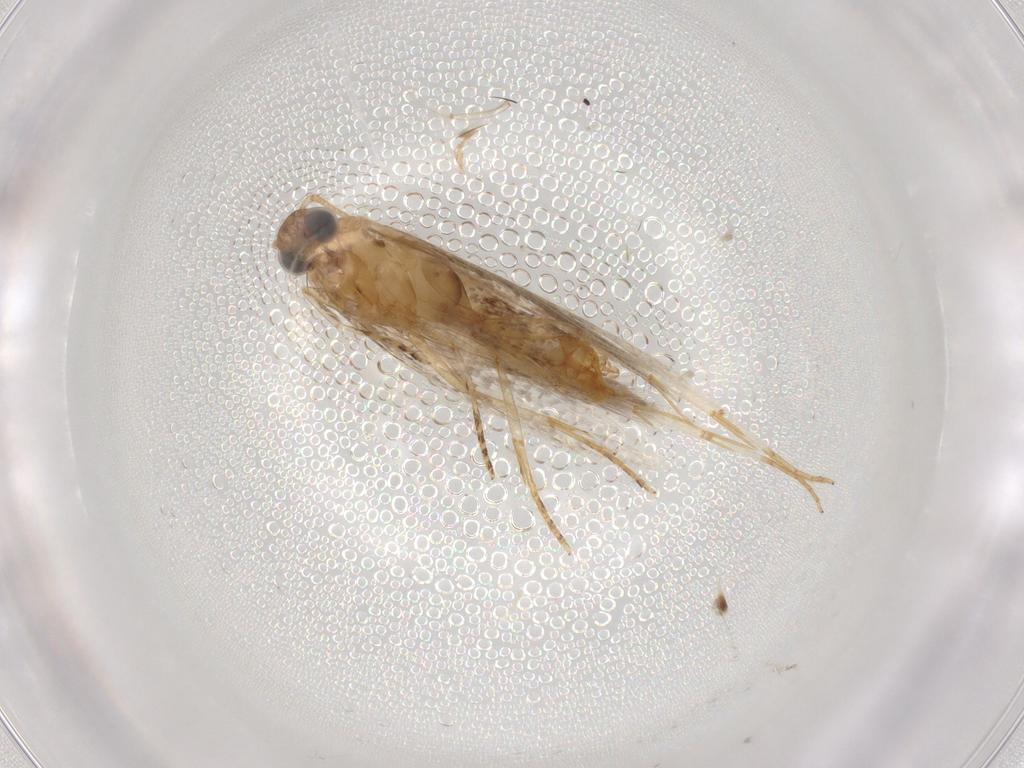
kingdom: Animalia
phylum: Arthropoda
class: Insecta
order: Lepidoptera
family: Plutellidae
